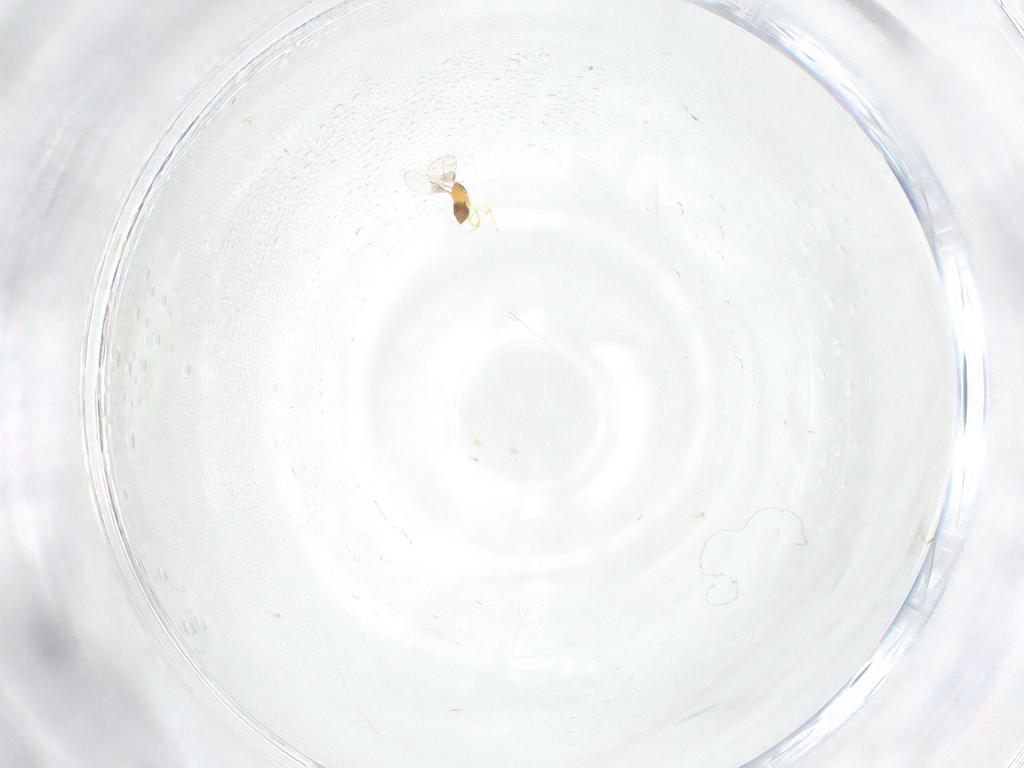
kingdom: Animalia
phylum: Arthropoda
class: Insecta
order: Hymenoptera
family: Trichogrammatidae
